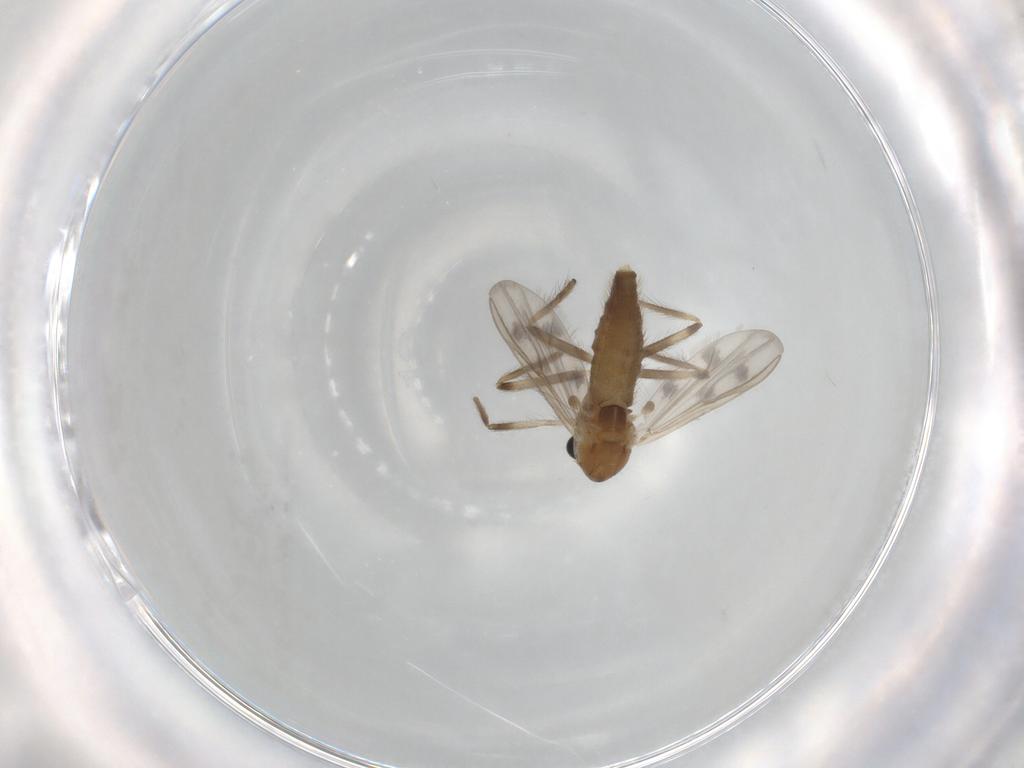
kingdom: Animalia
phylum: Arthropoda
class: Insecta
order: Diptera
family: Chironomidae
